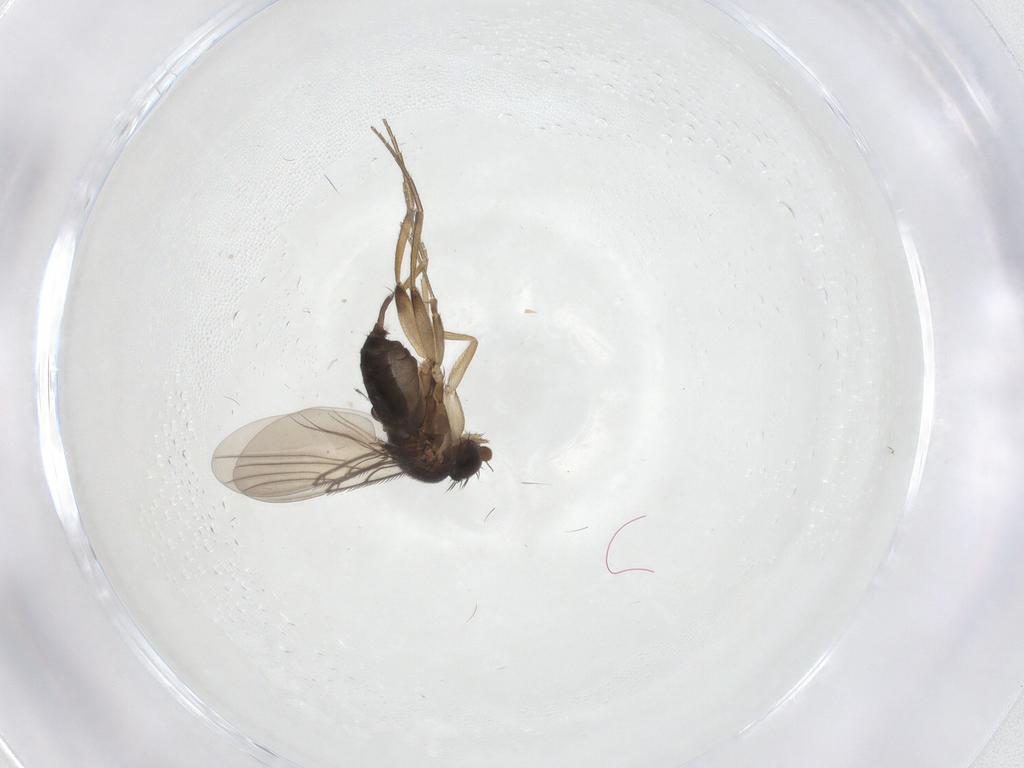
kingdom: Animalia
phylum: Arthropoda
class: Insecta
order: Diptera
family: Phoridae
